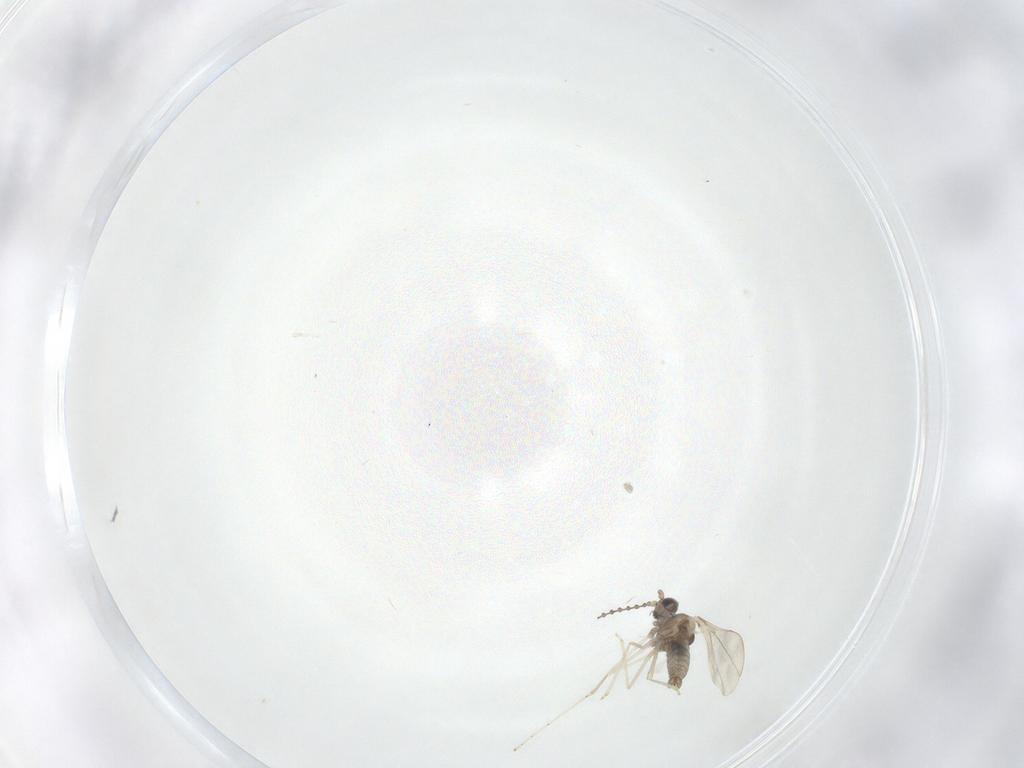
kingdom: Animalia
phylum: Arthropoda
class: Insecta
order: Diptera
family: Cecidomyiidae
